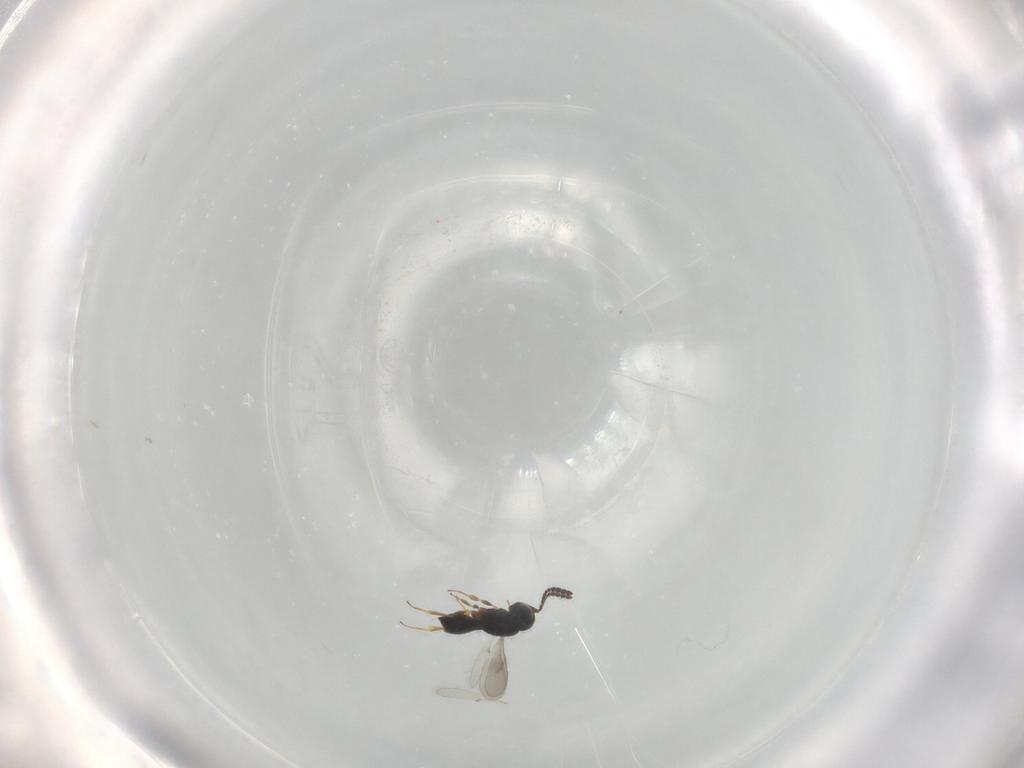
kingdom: Animalia
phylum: Arthropoda
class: Insecta
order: Hymenoptera
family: Scelionidae
